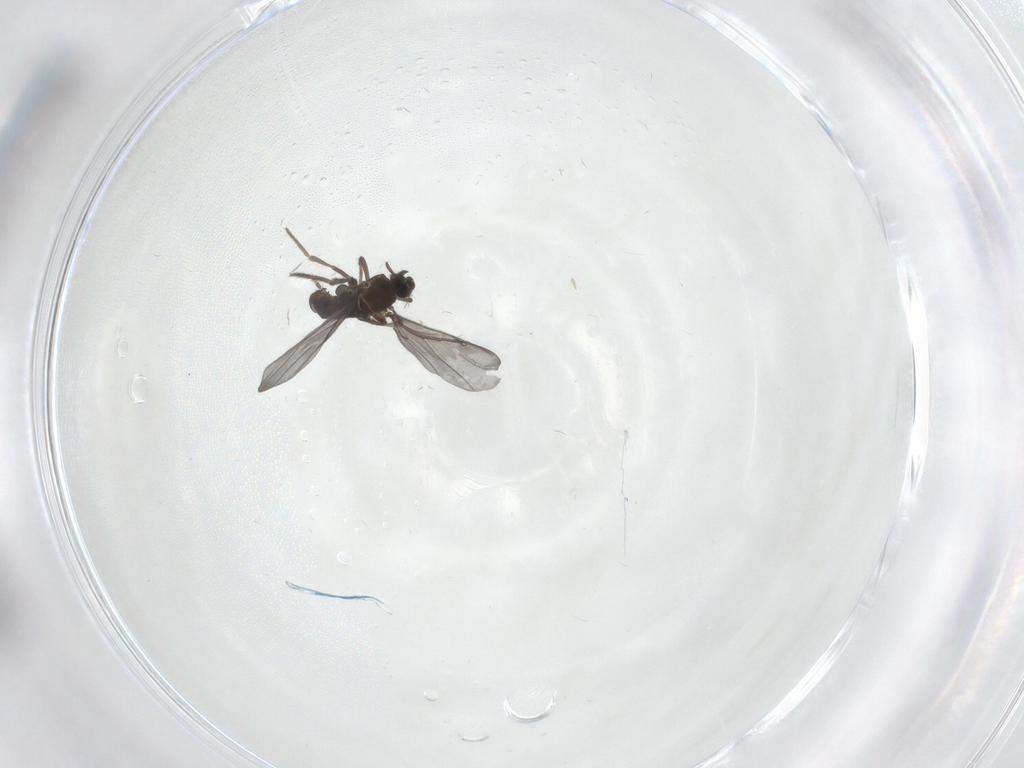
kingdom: Animalia
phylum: Arthropoda
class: Insecta
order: Diptera
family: Phoridae
